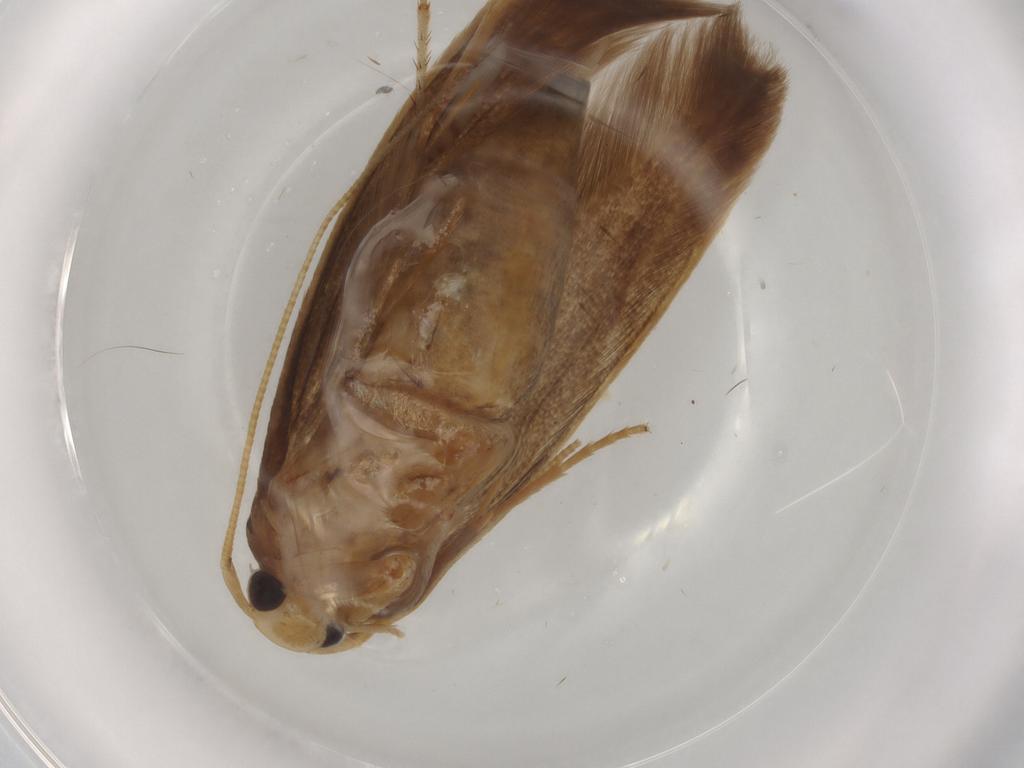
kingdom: Animalia
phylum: Arthropoda
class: Insecta
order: Lepidoptera
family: Tineidae
